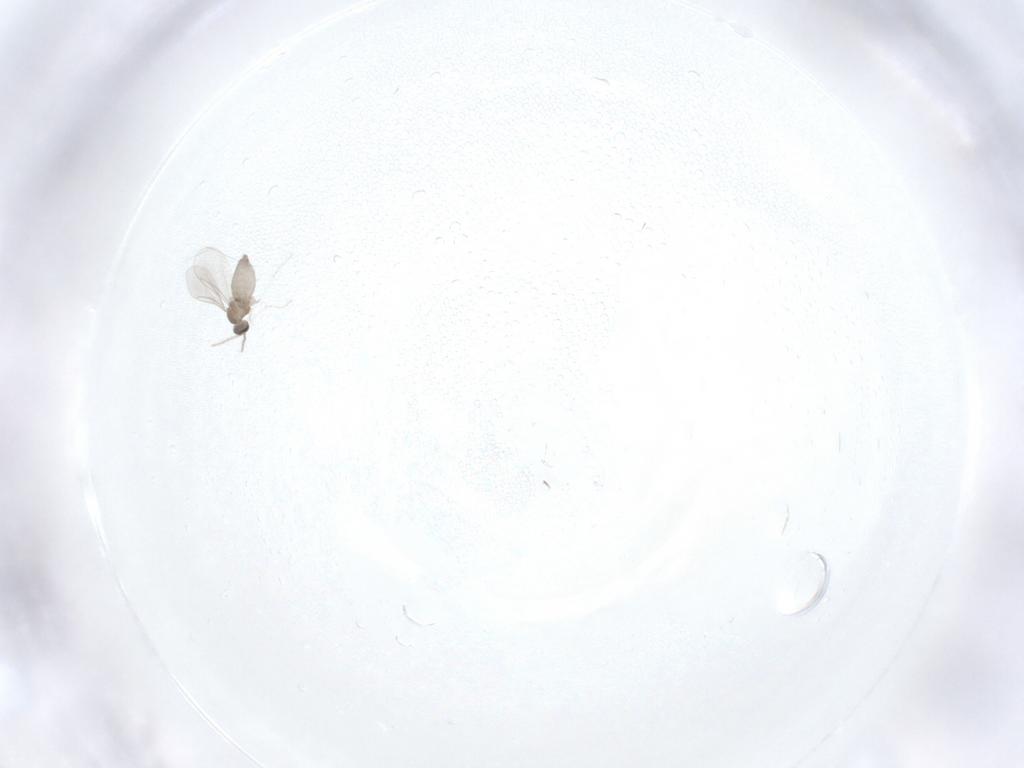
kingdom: Animalia
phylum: Arthropoda
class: Insecta
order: Diptera
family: Cecidomyiidae
